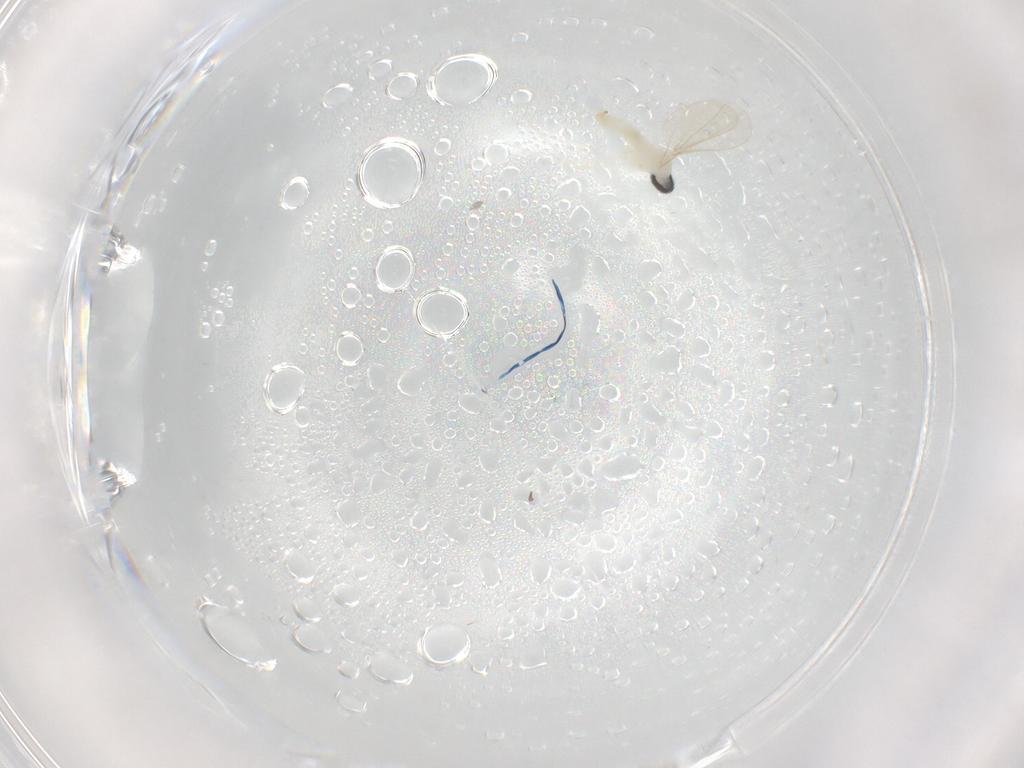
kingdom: Animalia
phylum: Arthropoda
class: Insecta
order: Diptera
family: Cecidomyiidae
